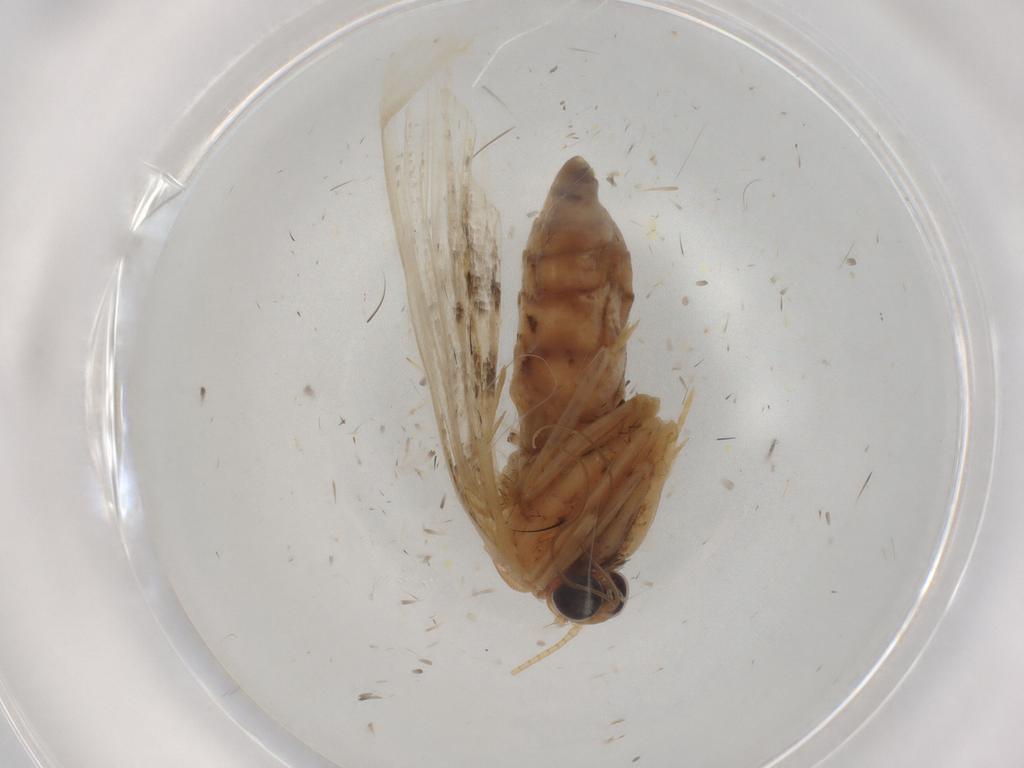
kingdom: Animalia
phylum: Arthropoda
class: Insecta
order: Lepidoptera
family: Geometridae
